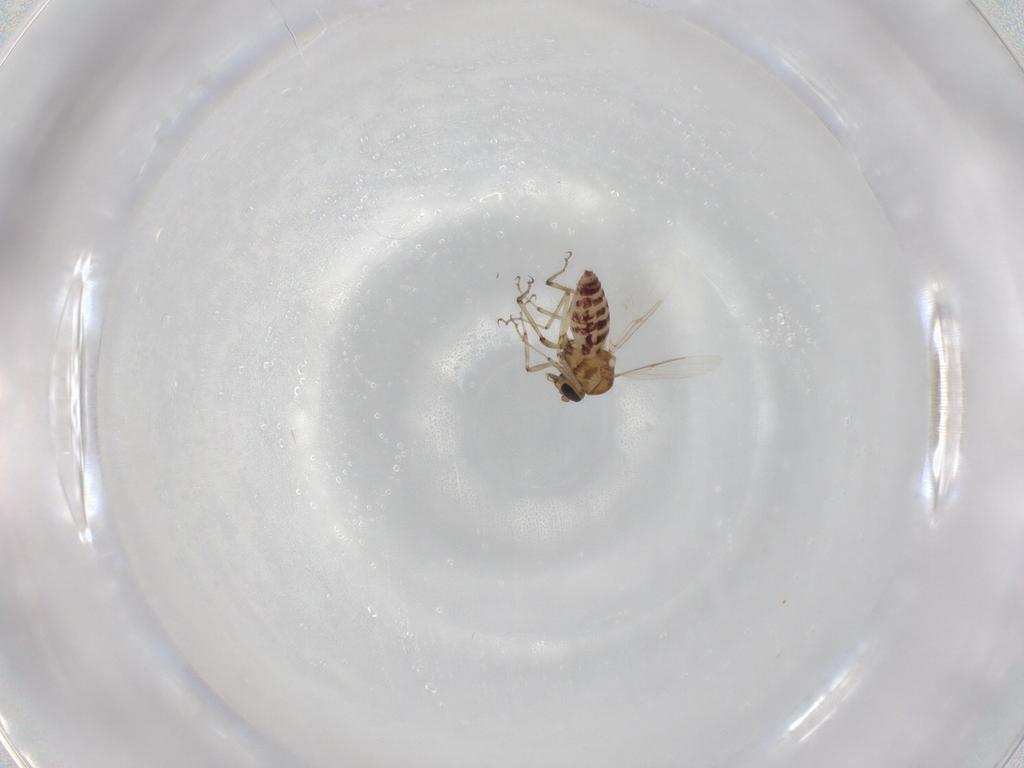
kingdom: Animalia
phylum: Arthropoda
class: Insecta
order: Diptera
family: Ceratopogonidae
